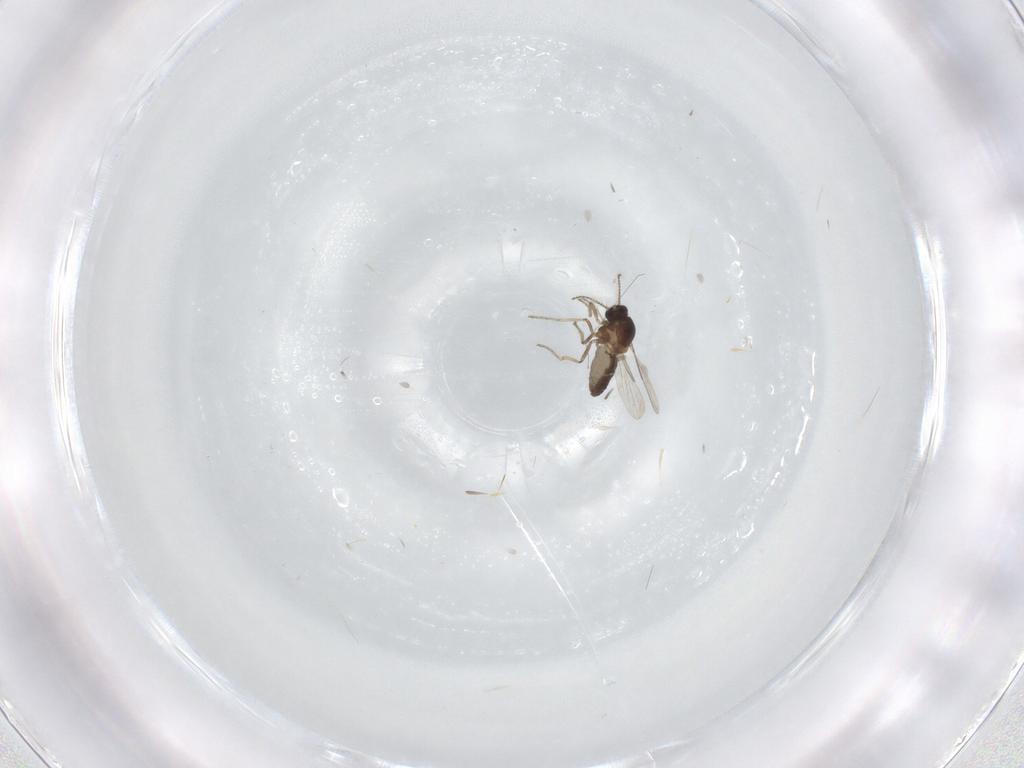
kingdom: Animalia
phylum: Arthropoda
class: Insecta
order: Diptera
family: Ceratopogonidae
